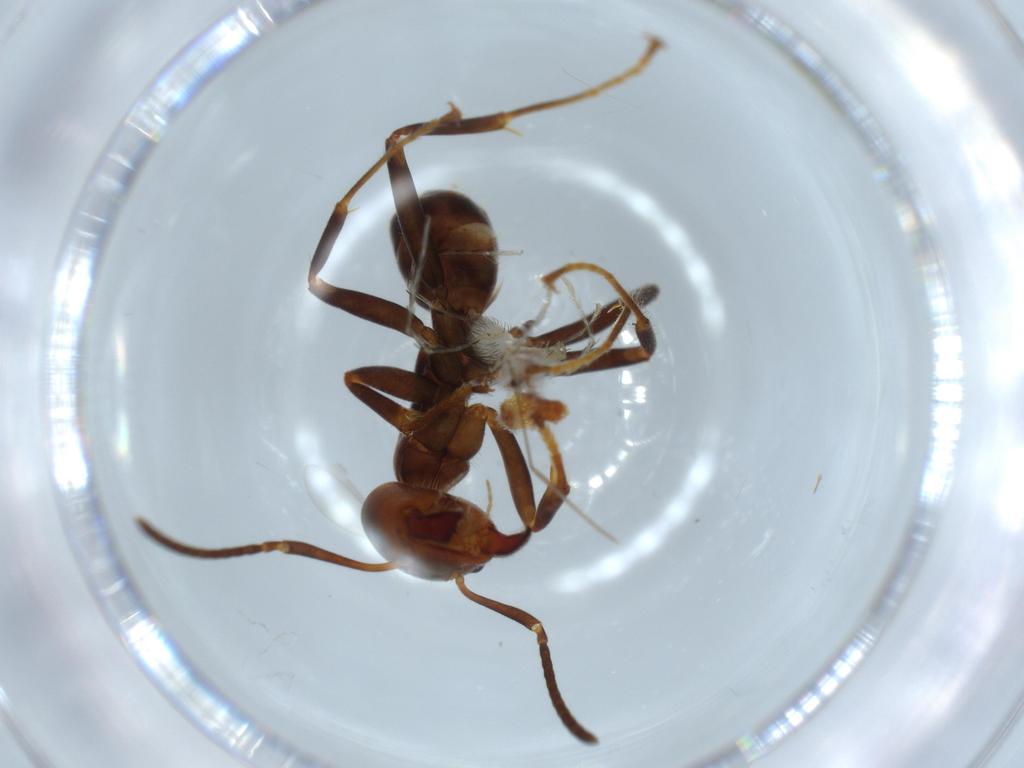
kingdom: Animalia
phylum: Arthropoda
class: Insecta
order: Hymenoptera
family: Formicidae
